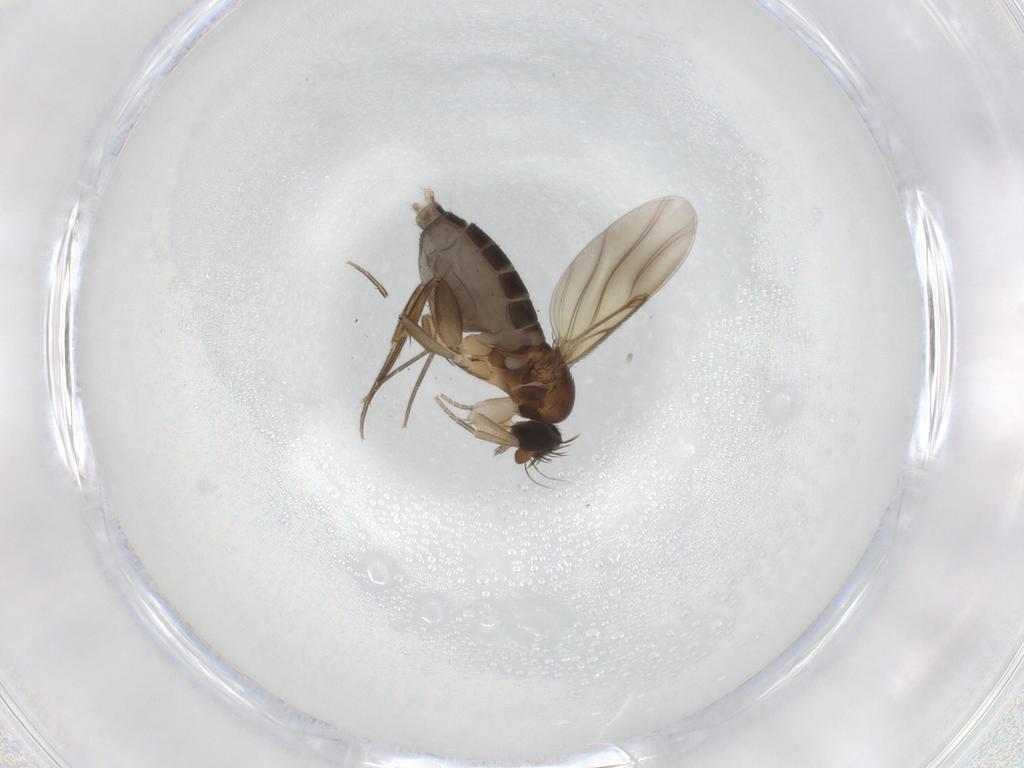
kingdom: Animalia
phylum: Arthropoda
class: Insecta
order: Diptera
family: Phoridae
